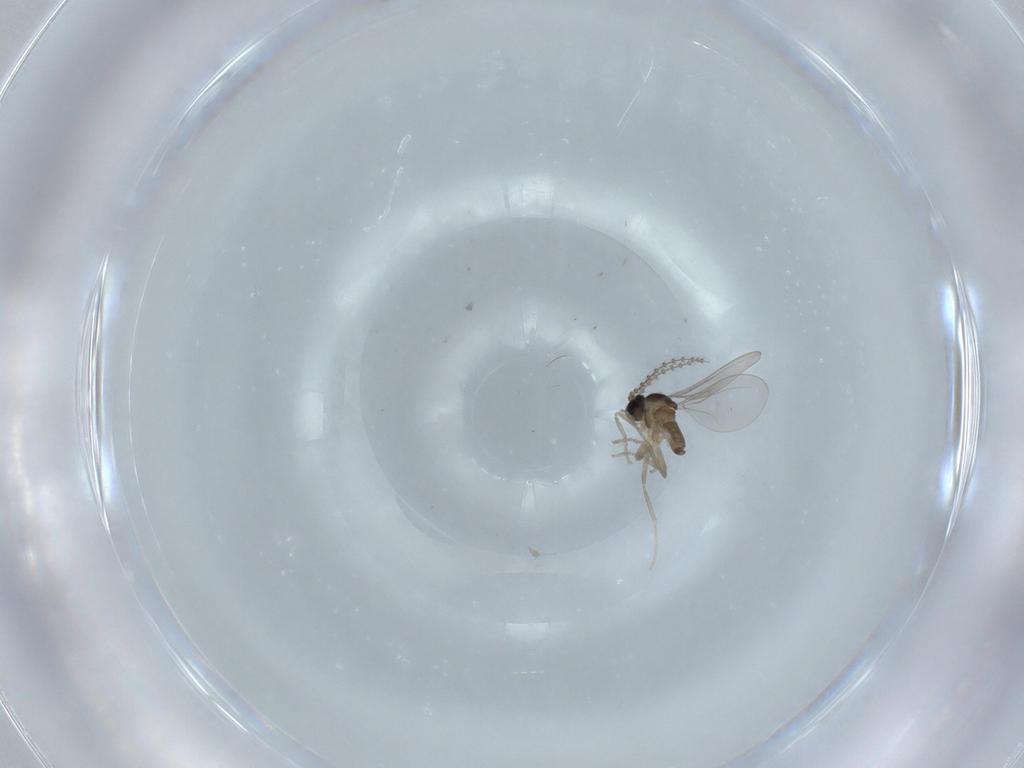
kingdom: Animalia
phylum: Arthropoda
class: Insecta
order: Diptera
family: Cecidomyiidae
